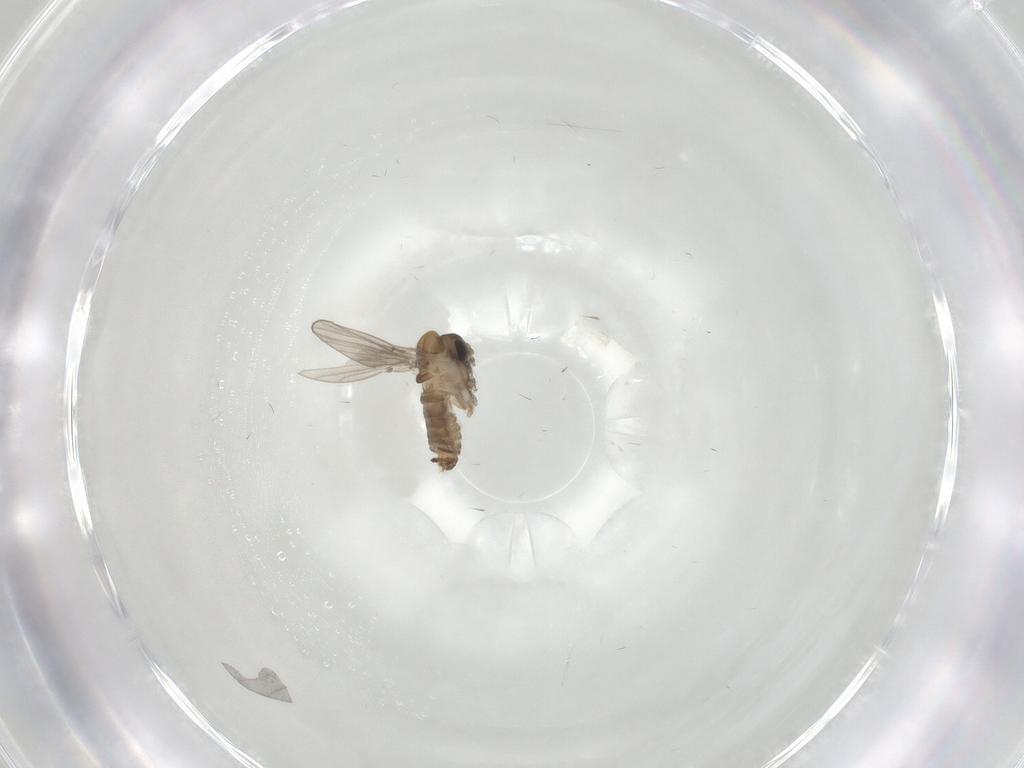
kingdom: Animalia
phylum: Arthropoda
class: Insecta
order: Diptera
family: Psychodidae
